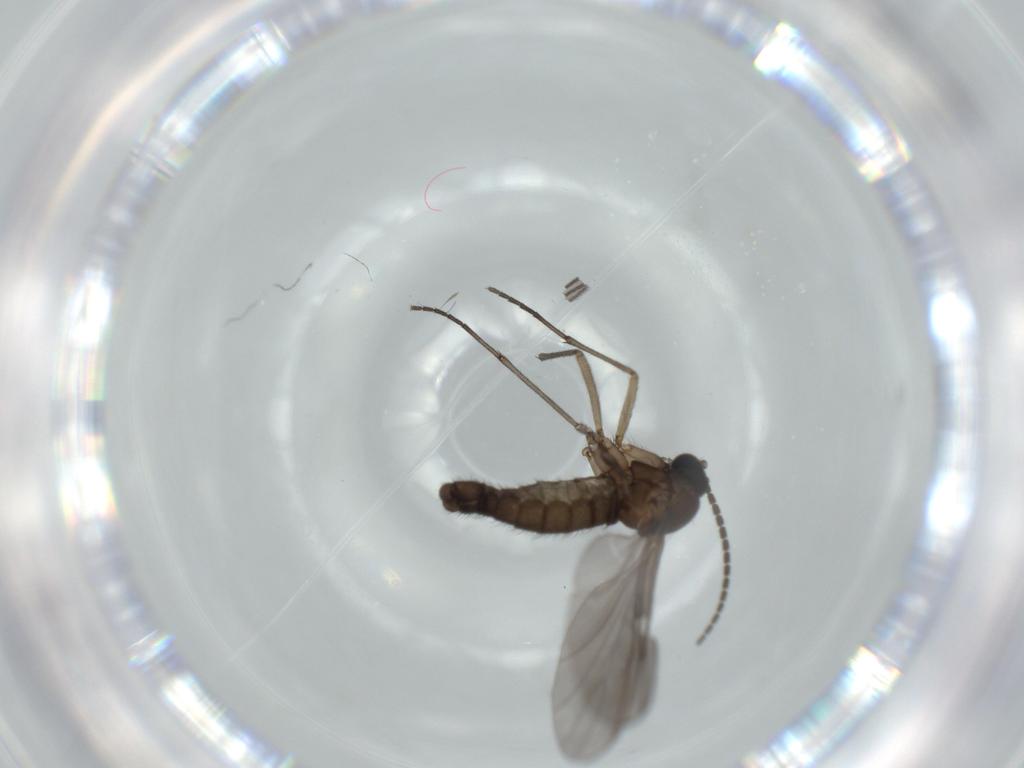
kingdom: Animalia
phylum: Arthropoda
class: Insecta
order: Diptera
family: Sciaridae
